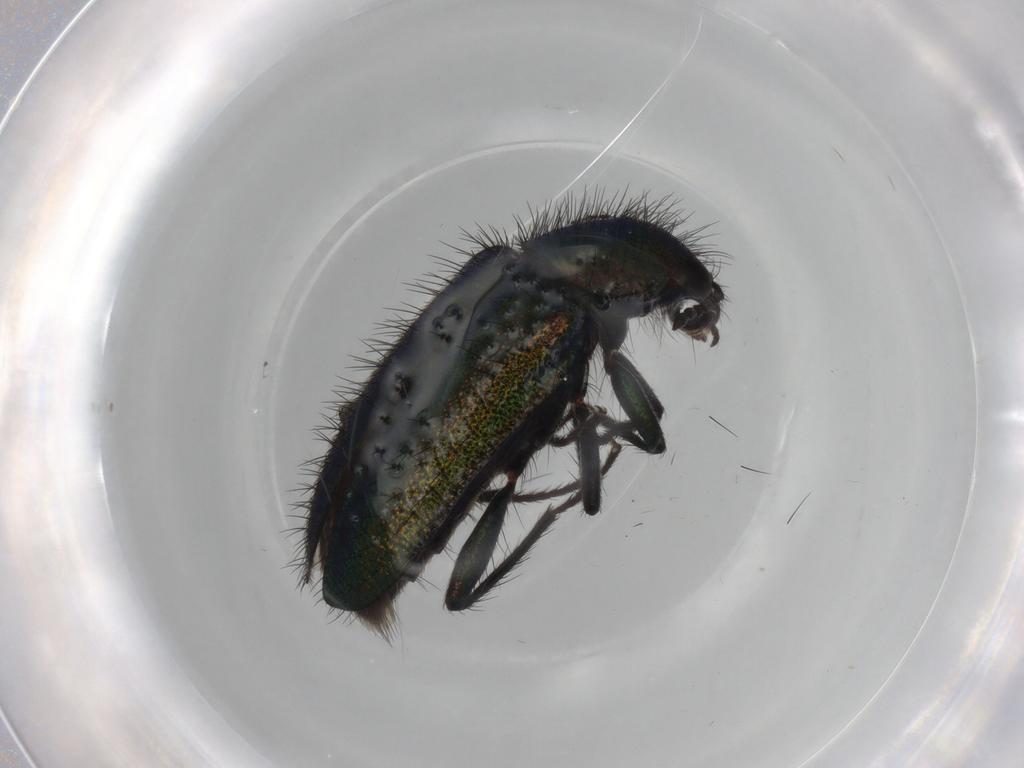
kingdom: Animalia
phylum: Arthropoda
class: Insecta
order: Coleoptera
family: Melyridae
